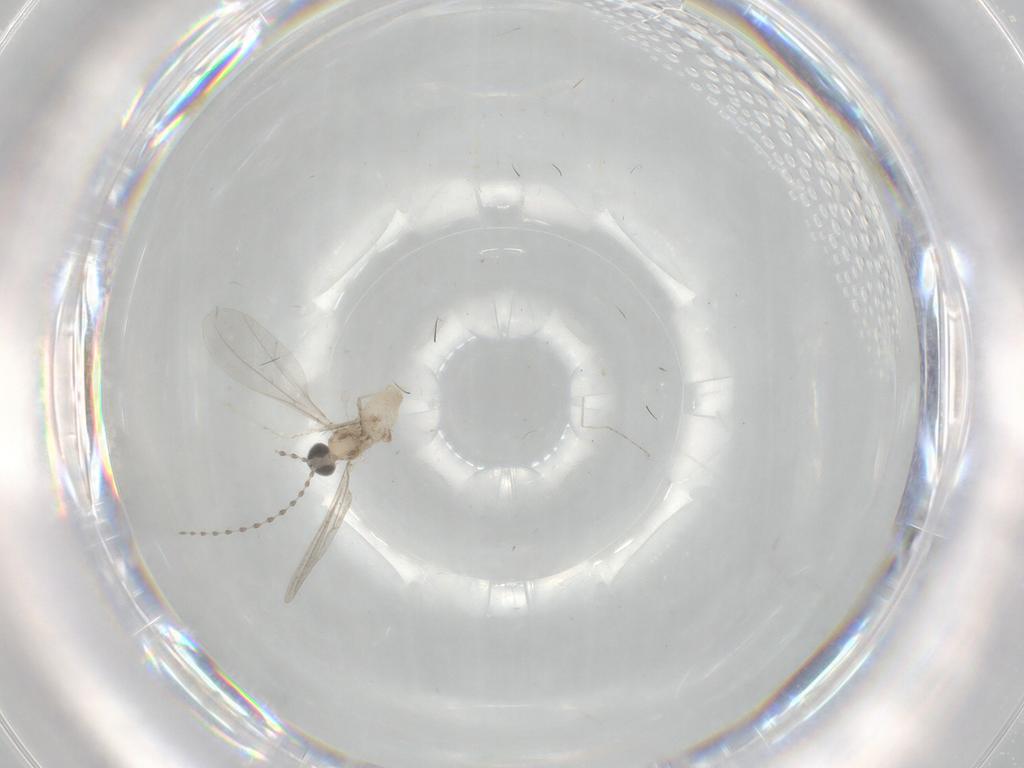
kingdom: Animalia
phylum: Arthropoda
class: Insecta
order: Diptera
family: Cecidomyiidae
